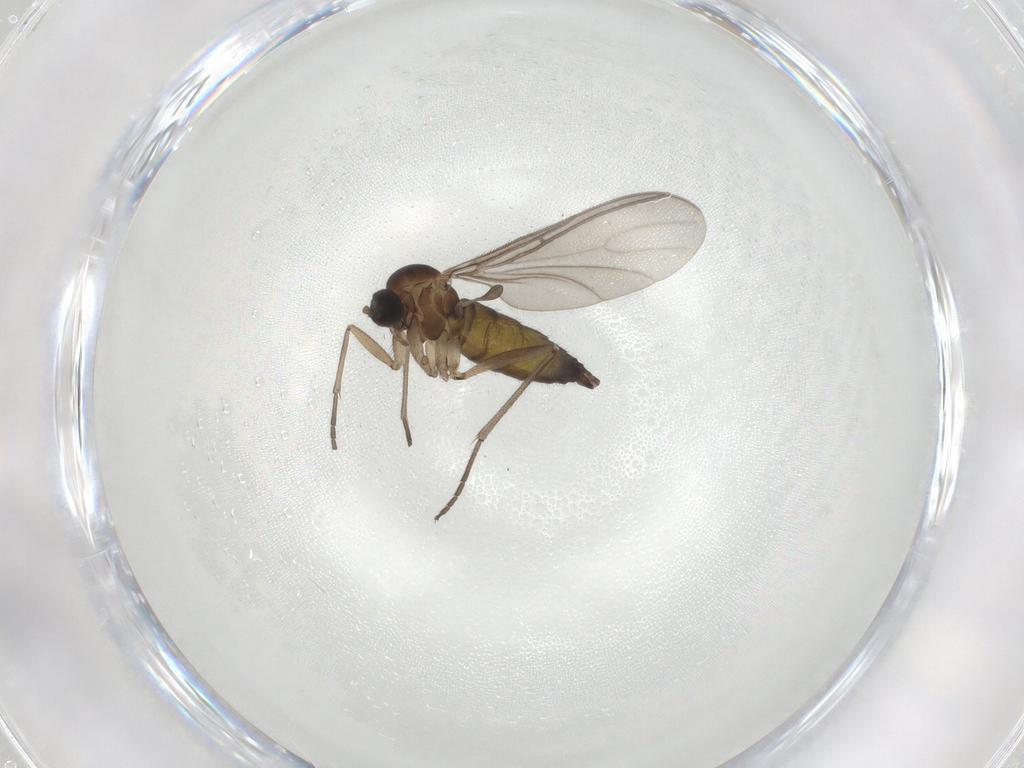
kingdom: Animalia
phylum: Arthropoda
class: Insecta
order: Diptera
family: Sciaridae
